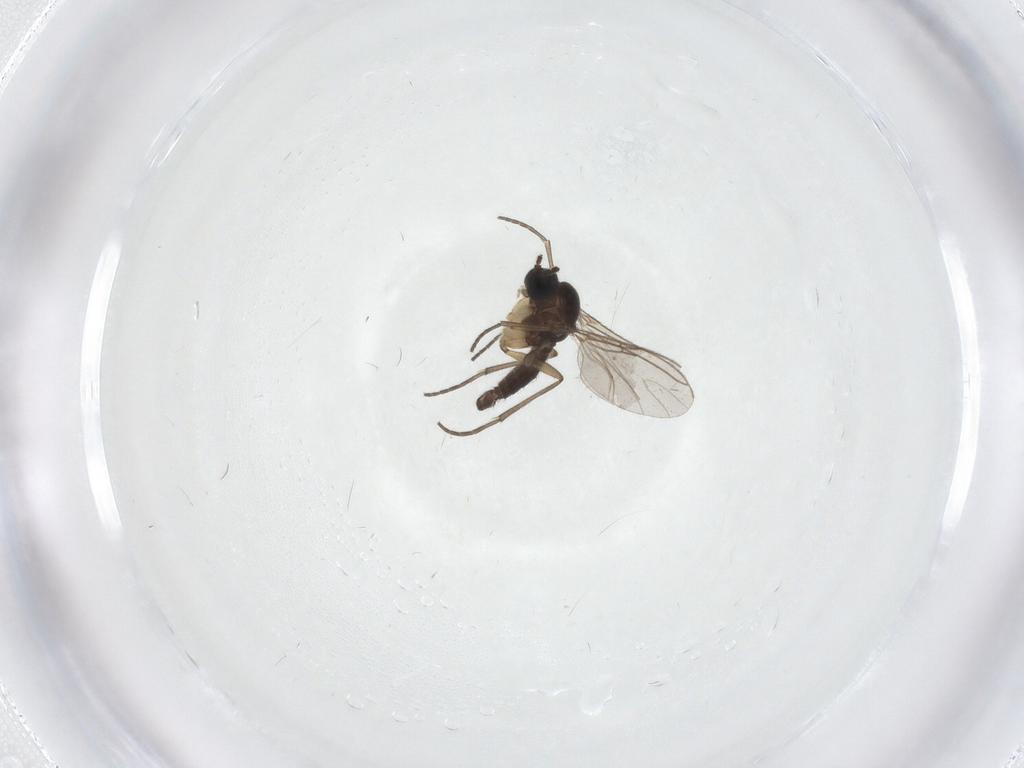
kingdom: Animalia
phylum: Arthropoda
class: Insecta
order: Diptera
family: Sciaridae
